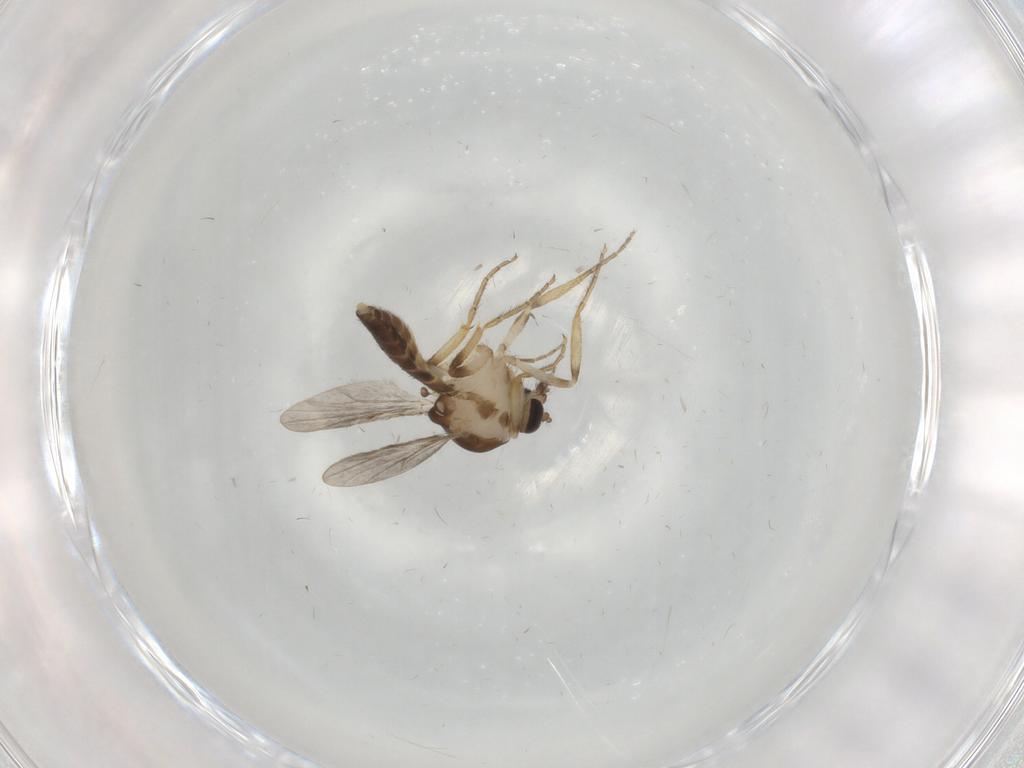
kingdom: Animalia
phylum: Arthropoda
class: Insecta
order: Diptera
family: Ceratopogonidae
